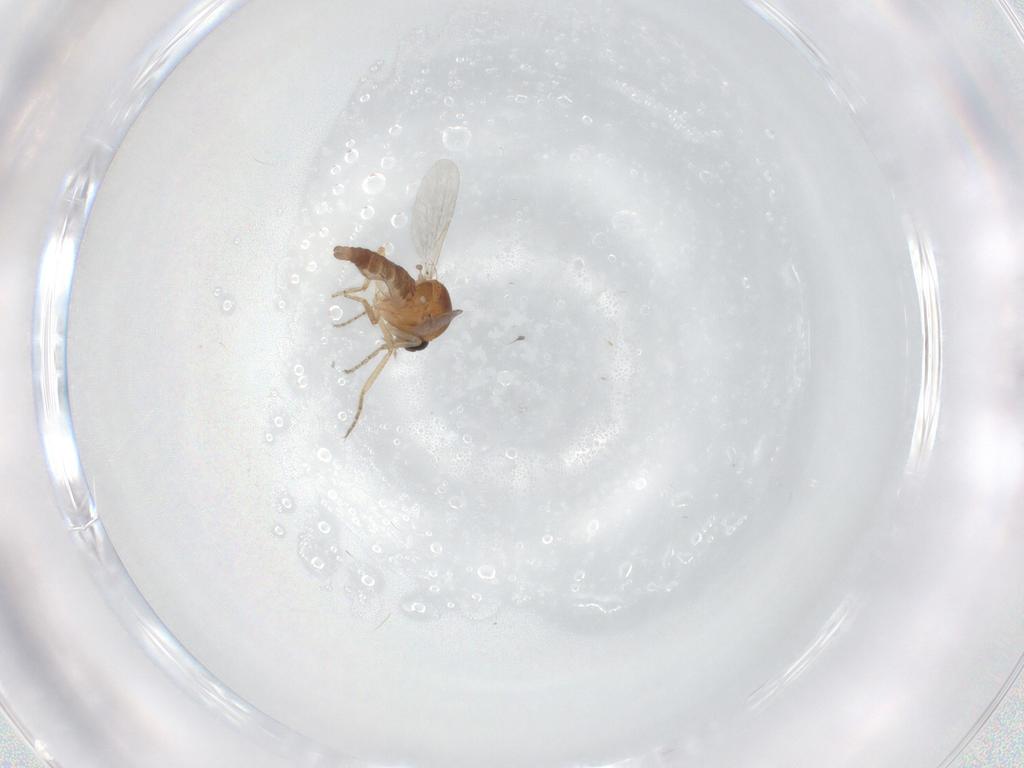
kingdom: Animalia
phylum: Arthropoda
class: Insecta
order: Diptera
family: Ceratopogonidae
